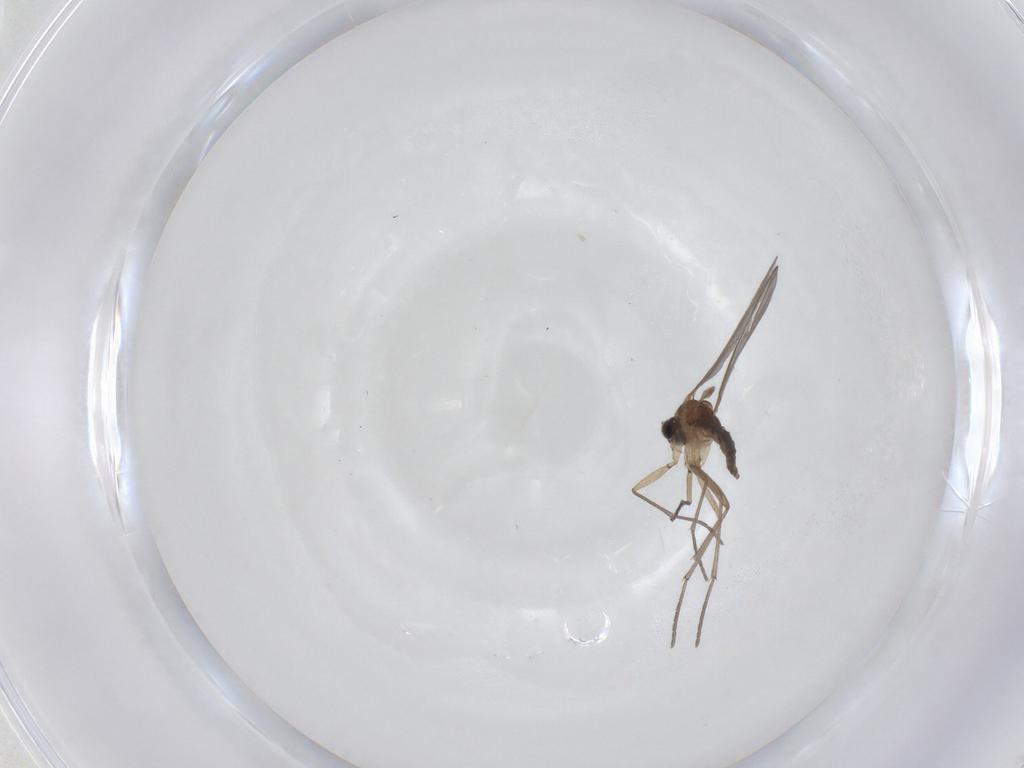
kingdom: Animalia
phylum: Arthropoda
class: Insecta
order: Diptera
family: Sciaridae
